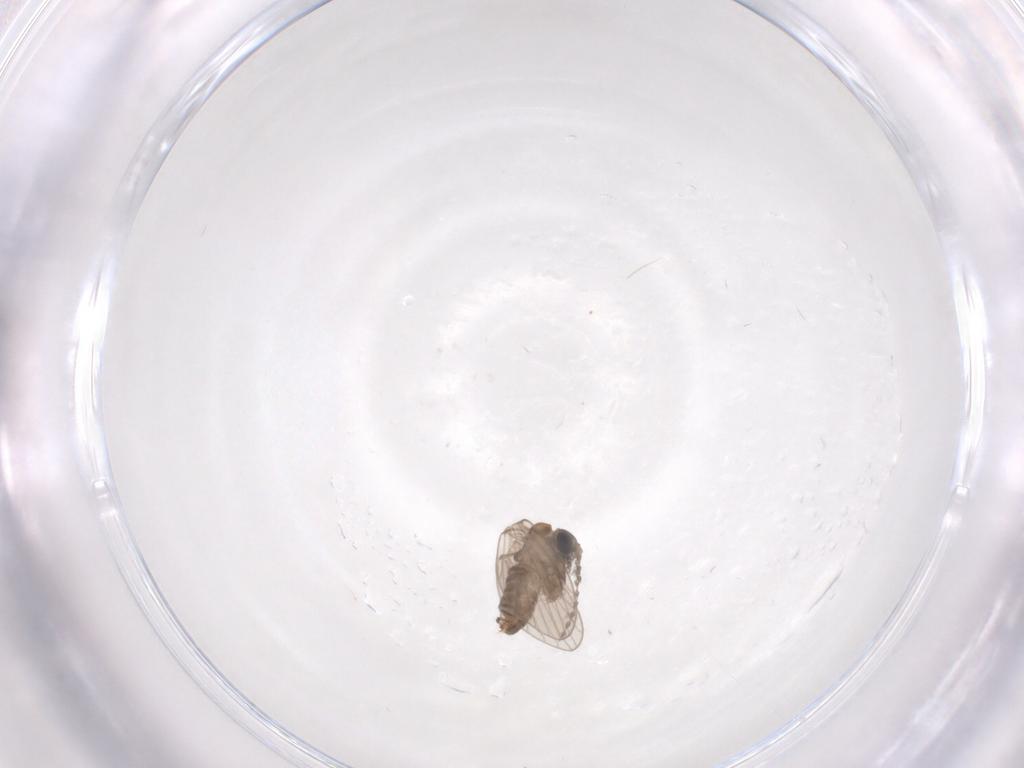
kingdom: Animalia
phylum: Arthropoda
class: Insecta
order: Diptera
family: Psychodidae
